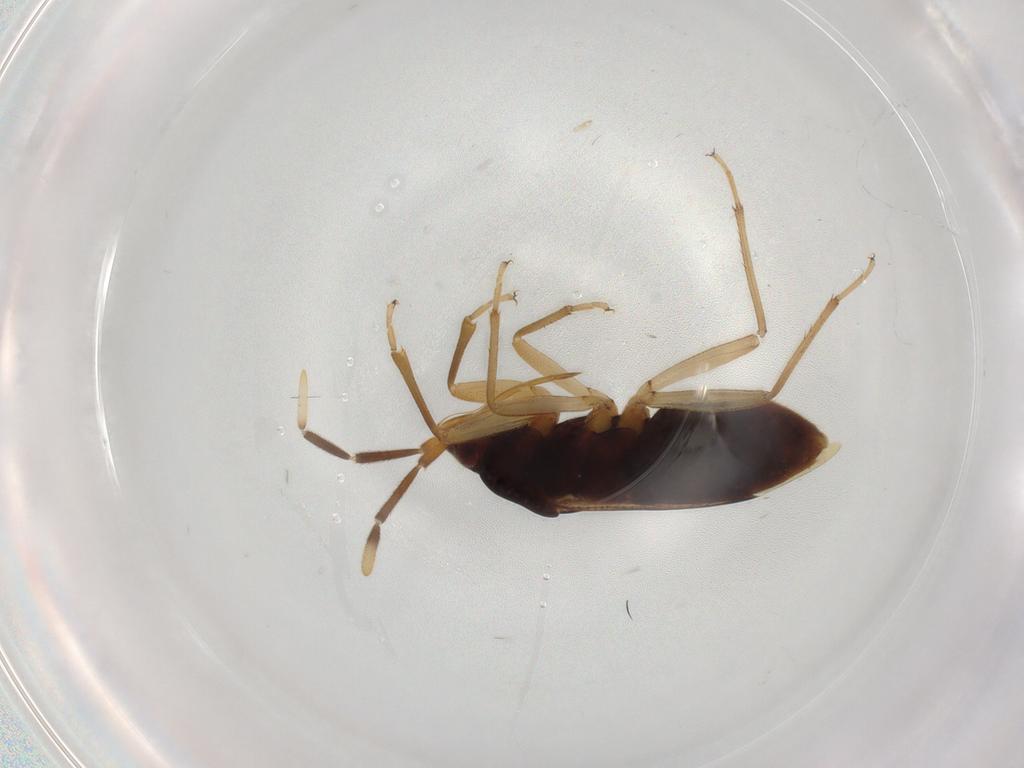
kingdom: Animalia
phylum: Arthropoda
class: Insecta
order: Hemiptera
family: Rhyparochromidae
